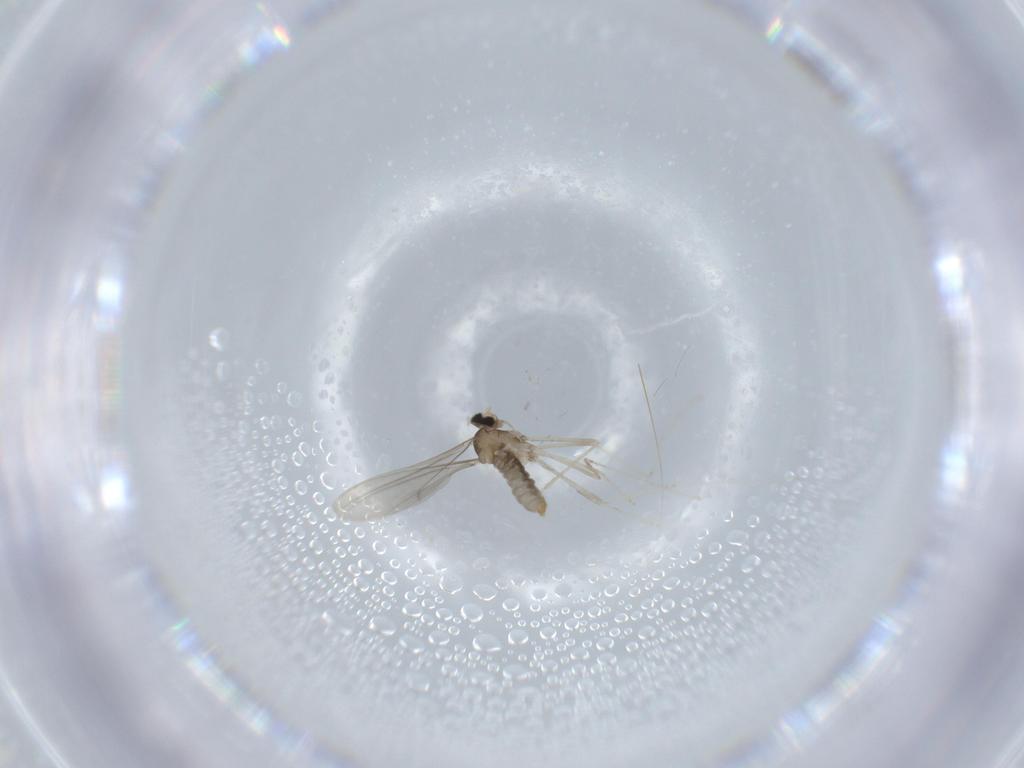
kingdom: Animalia
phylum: Arthropoda
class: Insecta
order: Diptera
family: Cecidomyiidae
